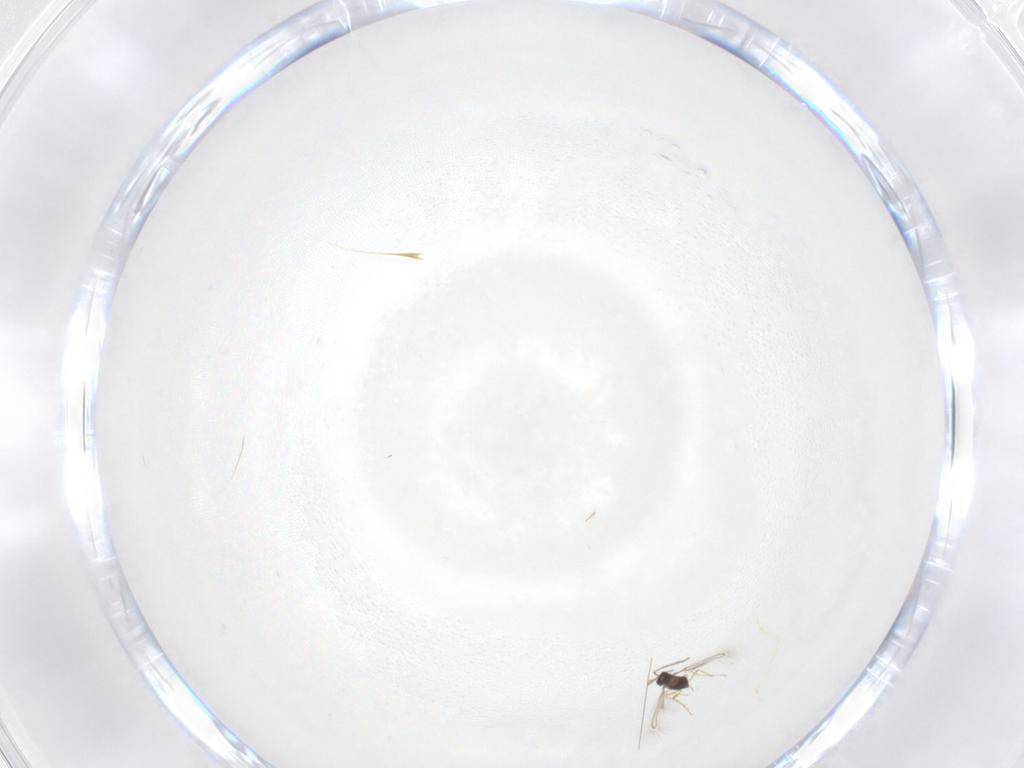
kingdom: Animalia
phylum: Arthropoda
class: Insecta
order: Hymenoptera
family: Mymaridae
